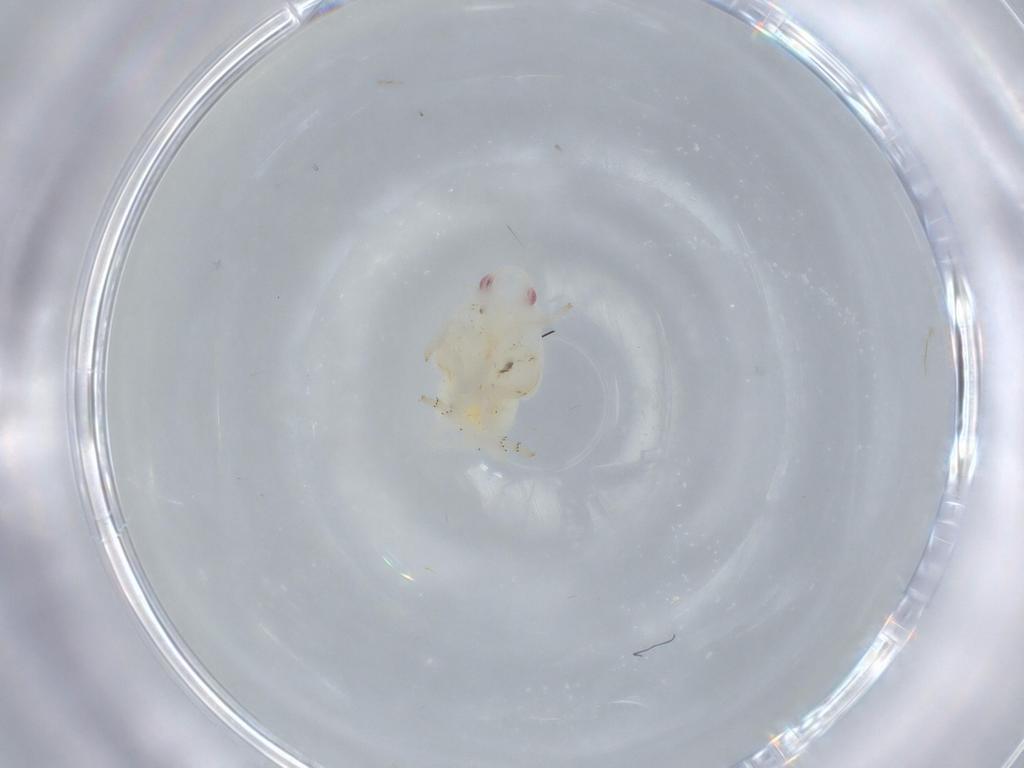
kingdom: Animalia
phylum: Arthropoda
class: Insecta
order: Hemiptera
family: Flatidae
